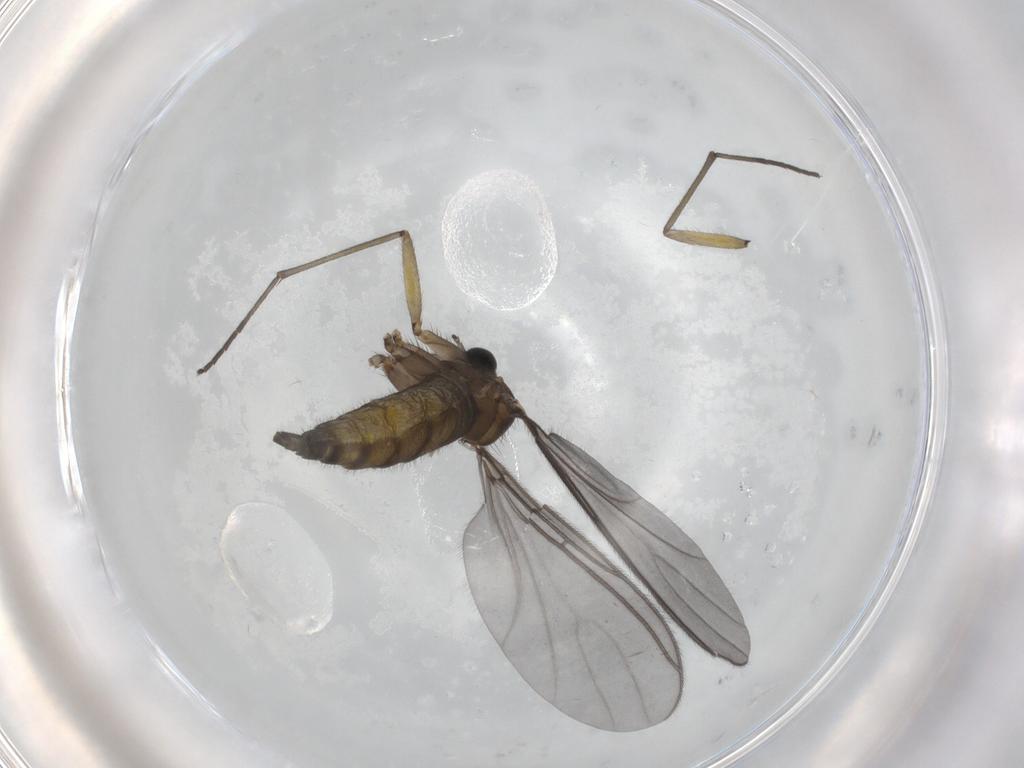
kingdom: Animalia
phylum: Arthropoda
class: Insecta
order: Diptera
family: Sciaridae
